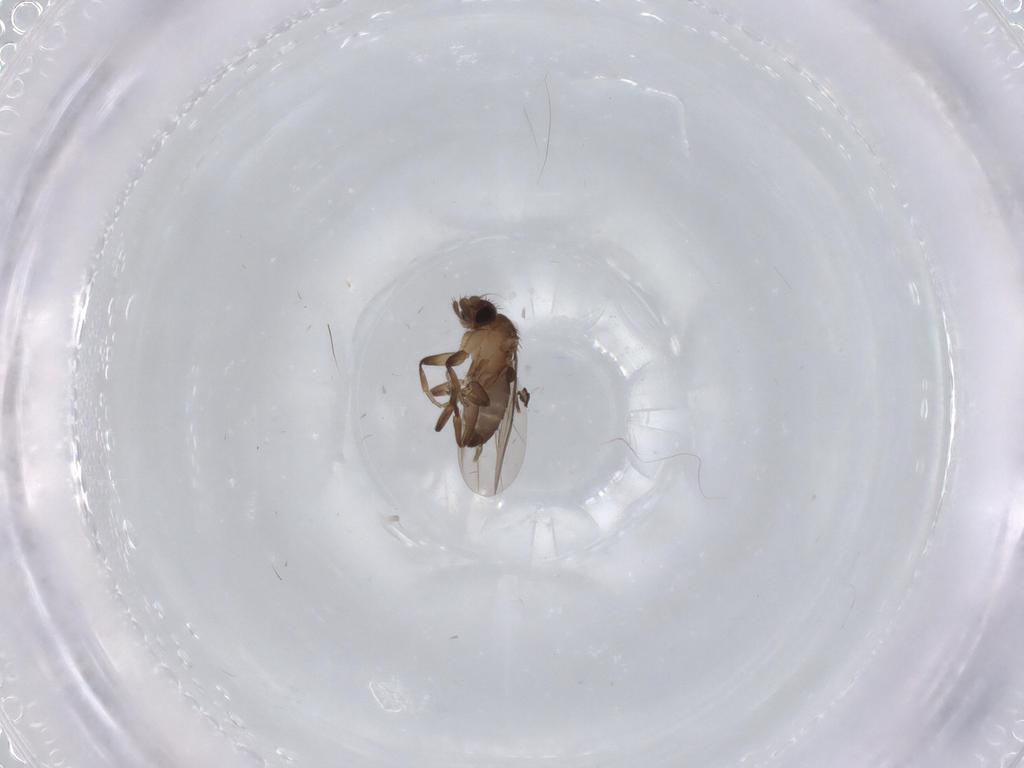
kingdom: Animalia
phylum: Arthropoda
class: Insecta
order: Diptera
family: Phoridae
